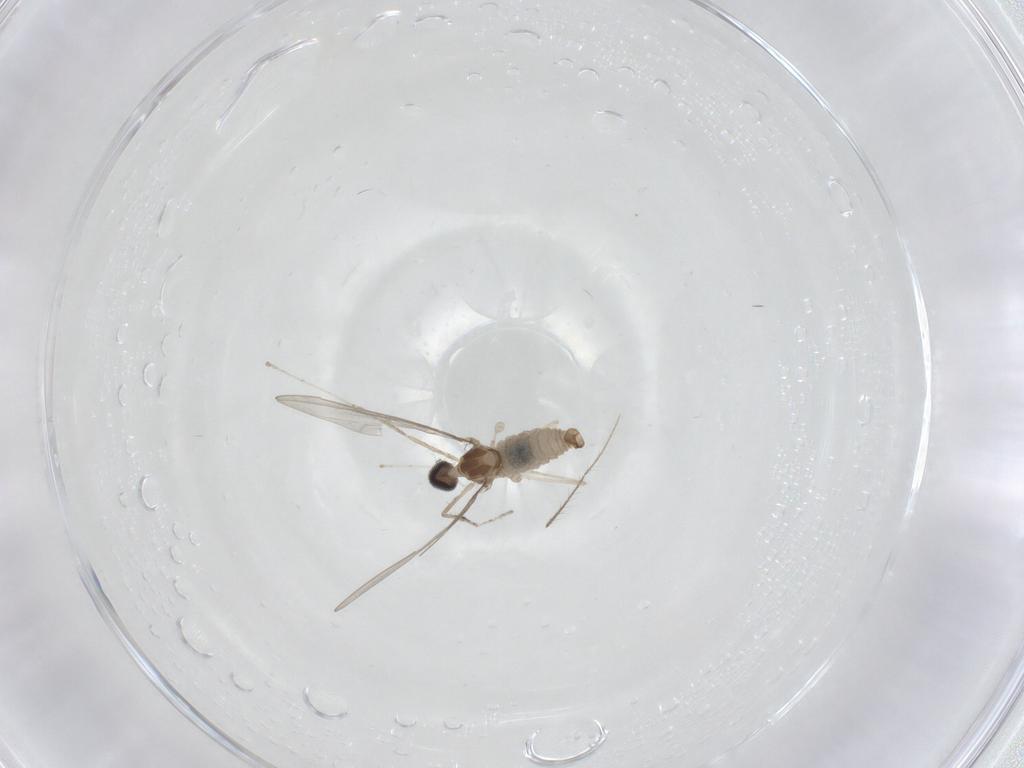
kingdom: Animalia
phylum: Arthropoda
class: Insecta
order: Diptera
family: Cecidomyiidae
